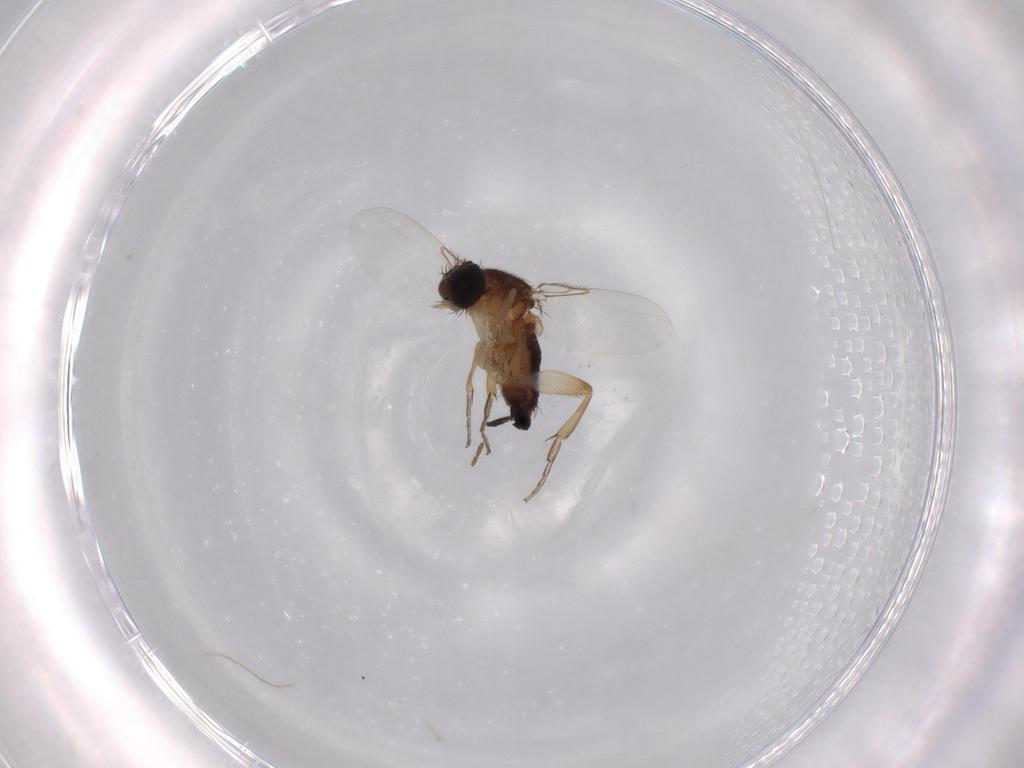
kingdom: Animalia
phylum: Arthropoda
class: Insecta
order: Diptera
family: Phoridae
